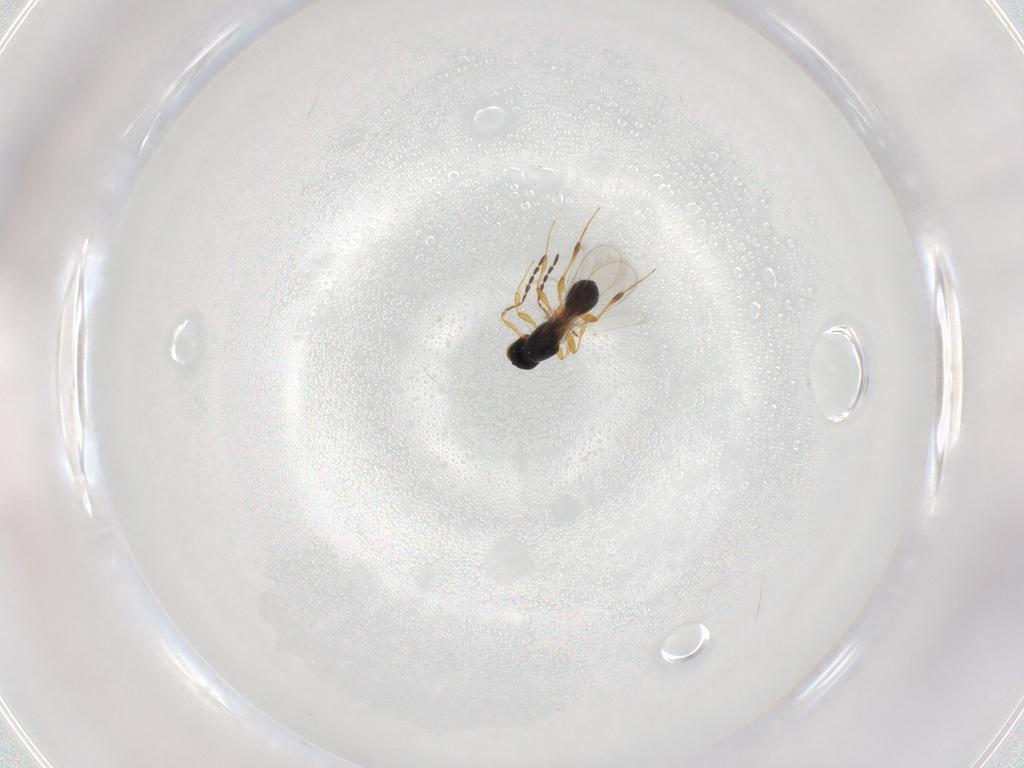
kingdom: Animalia
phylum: Arthropoda
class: Insecta
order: Hymenoptera
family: Platygastridae
